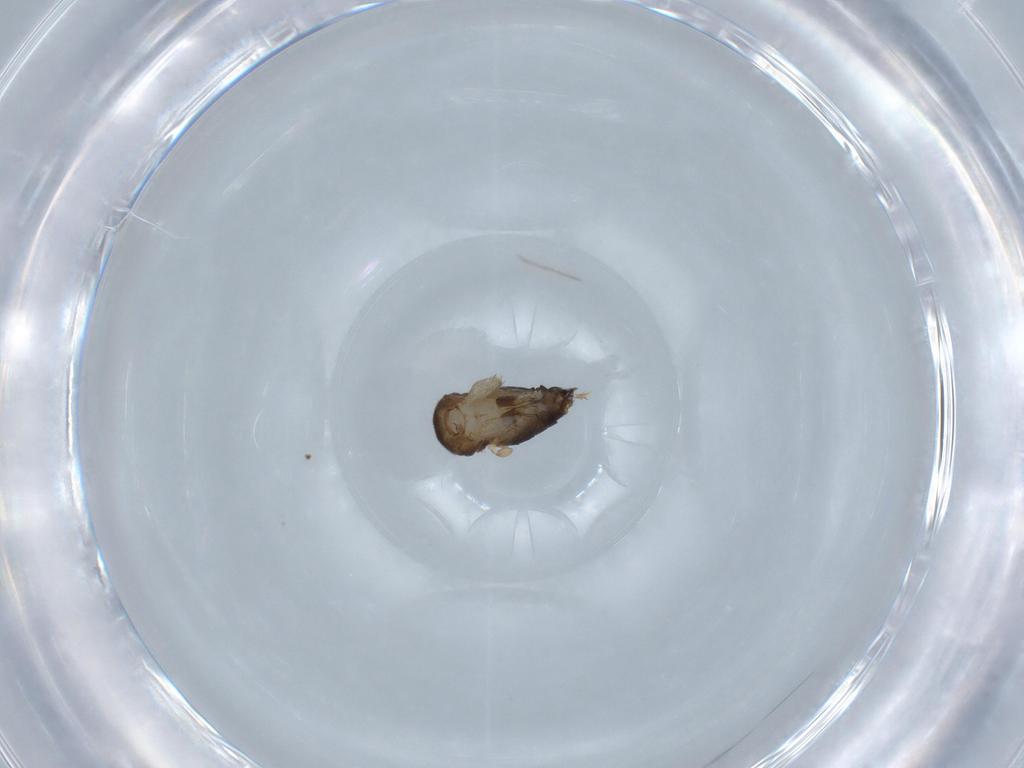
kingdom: Animalia
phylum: Arthropoda
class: Insecta
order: Diptera
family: Phoridae
